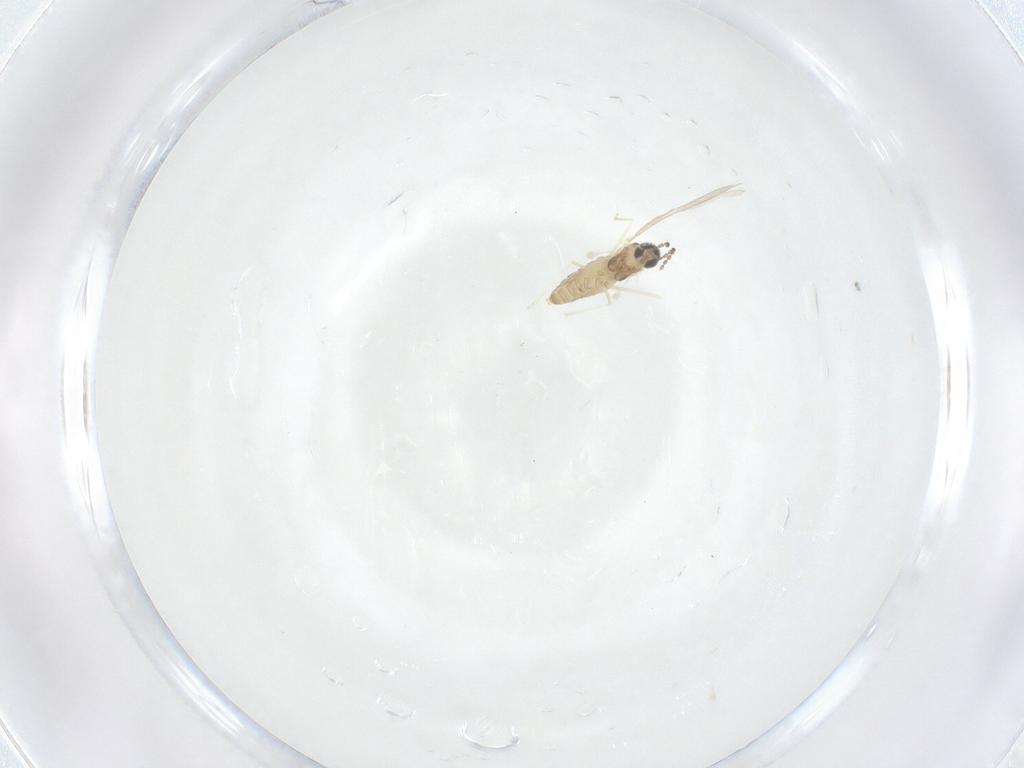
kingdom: Animalia
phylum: Arthropoda
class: Insecta
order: Diptera
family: Cecidomyiidae
